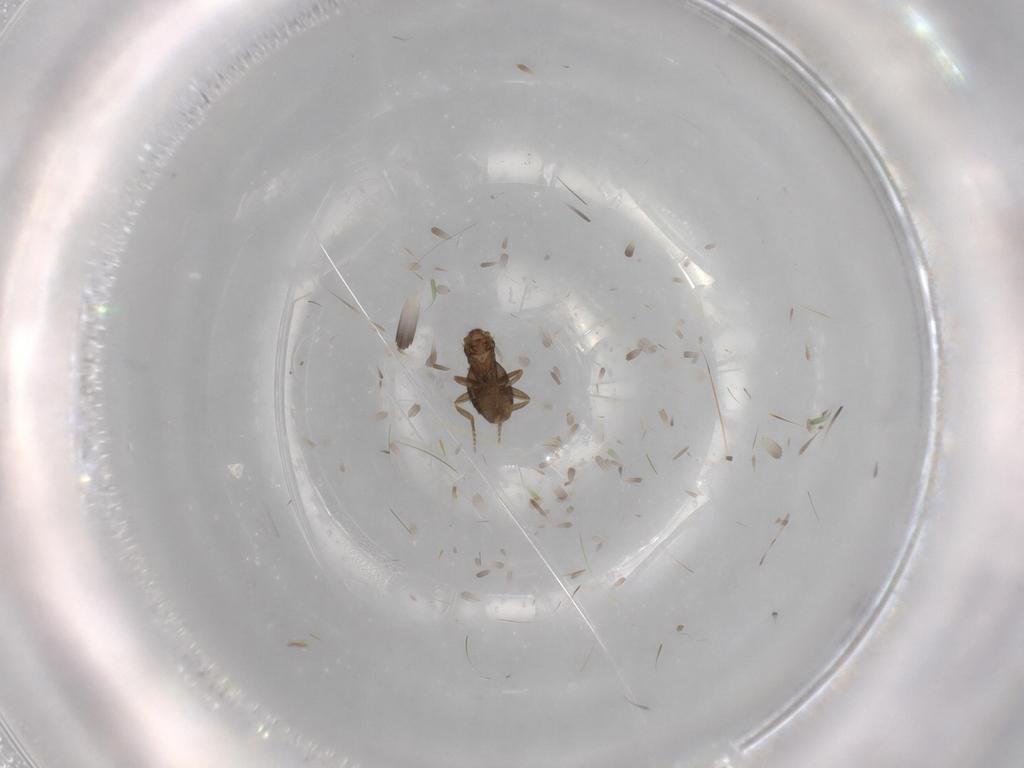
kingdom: Animalia
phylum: Arthropoda
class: Insecta
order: Diptera
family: Phoridae
